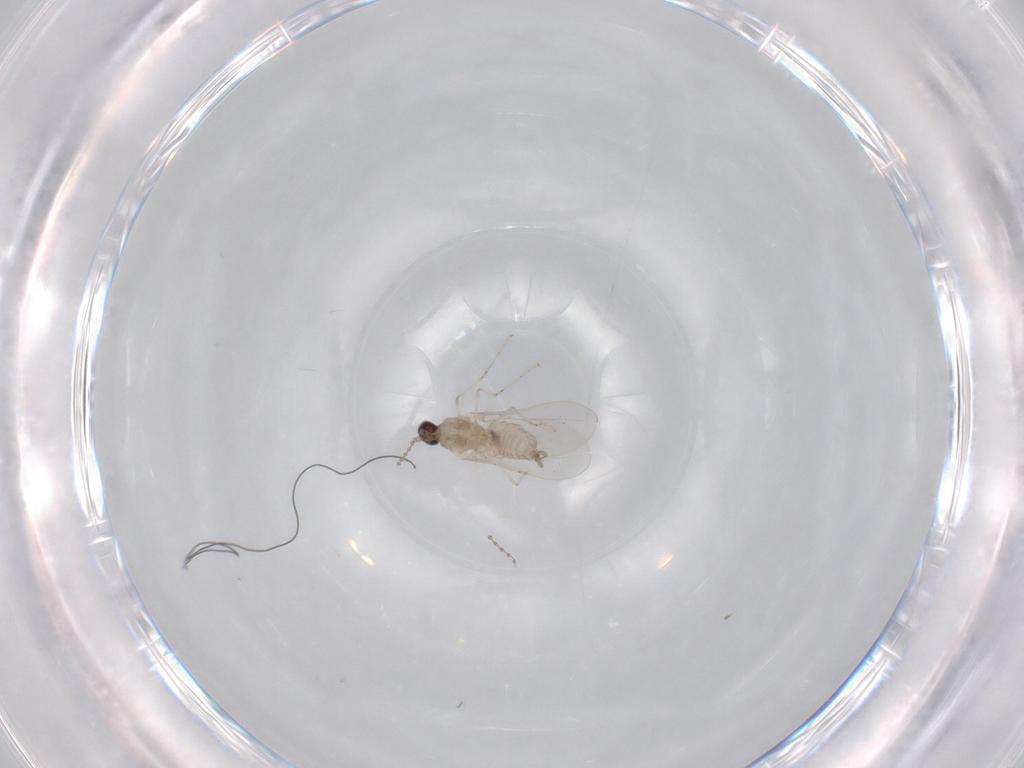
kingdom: Animalia
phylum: Arthropoda
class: Insecta
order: Diptera
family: Cecidomyiidae
